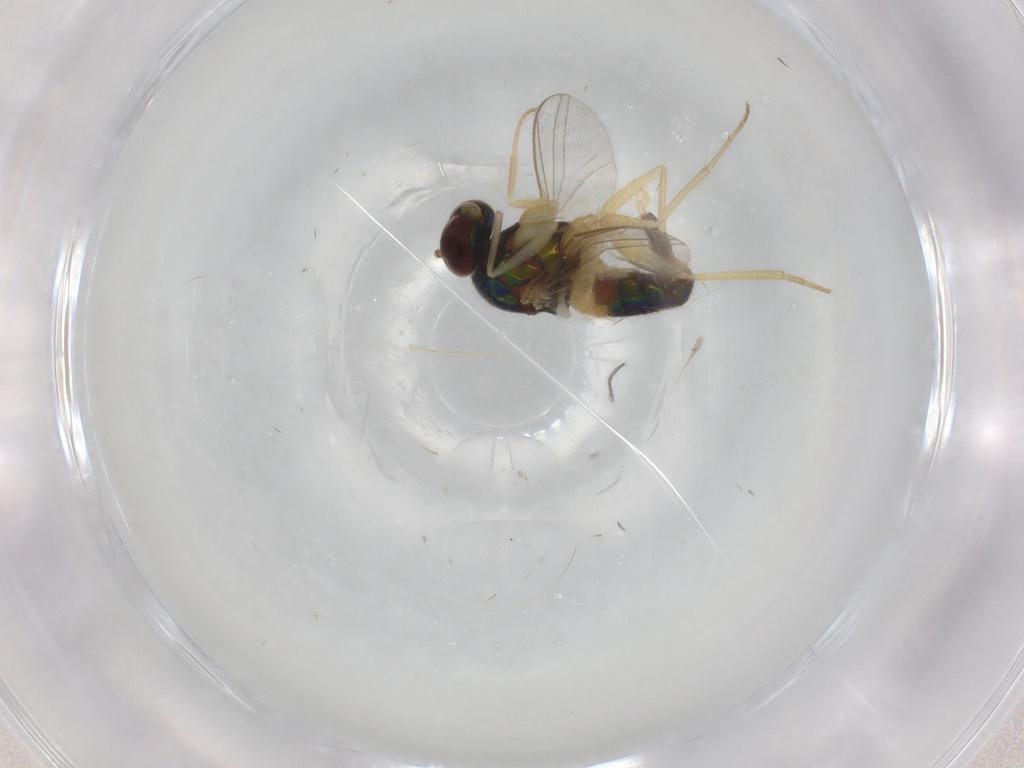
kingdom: Animalia
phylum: Arthropoda
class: Insecta
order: Diptera
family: Dolichopodidae
